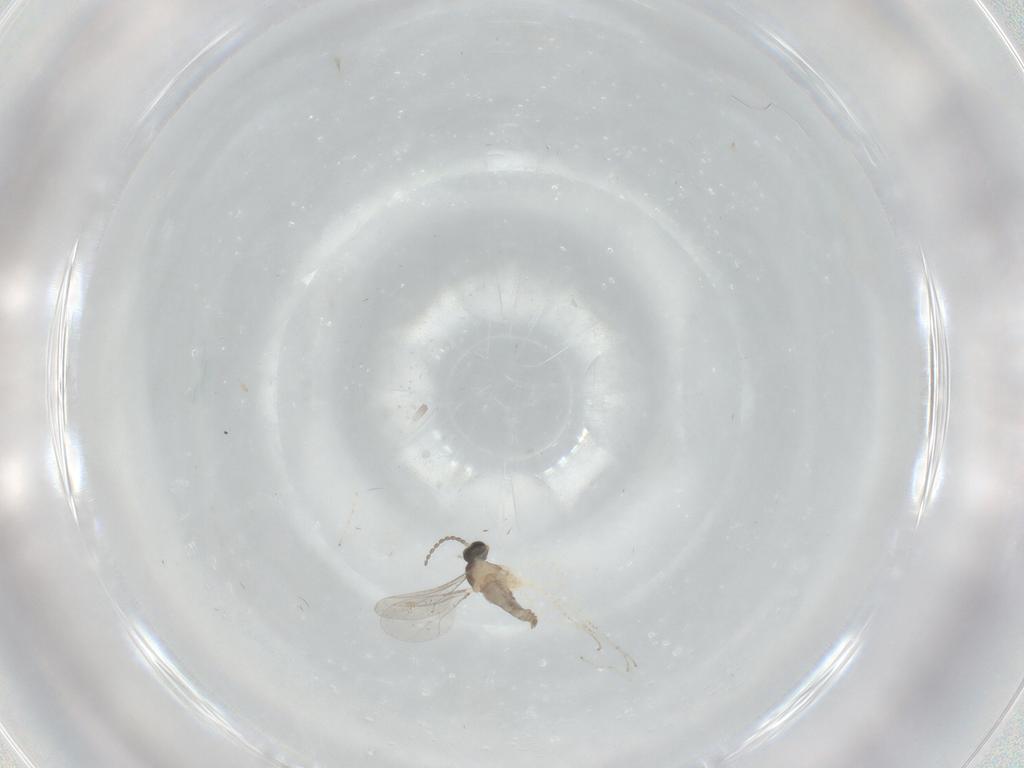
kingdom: Animalia
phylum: Arthropoda
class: Insecta
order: Diptera
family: Cecidomyiidae
